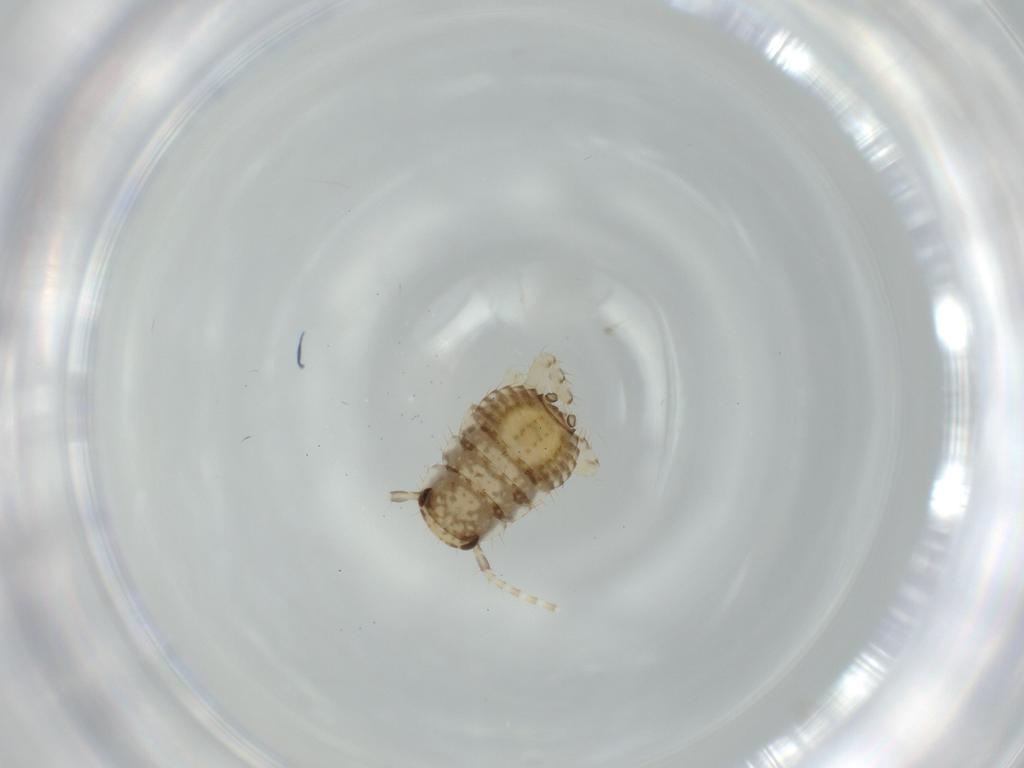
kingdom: Animalia
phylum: Arthropoda
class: Insecta
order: Blattodea
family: Ectobiidae
